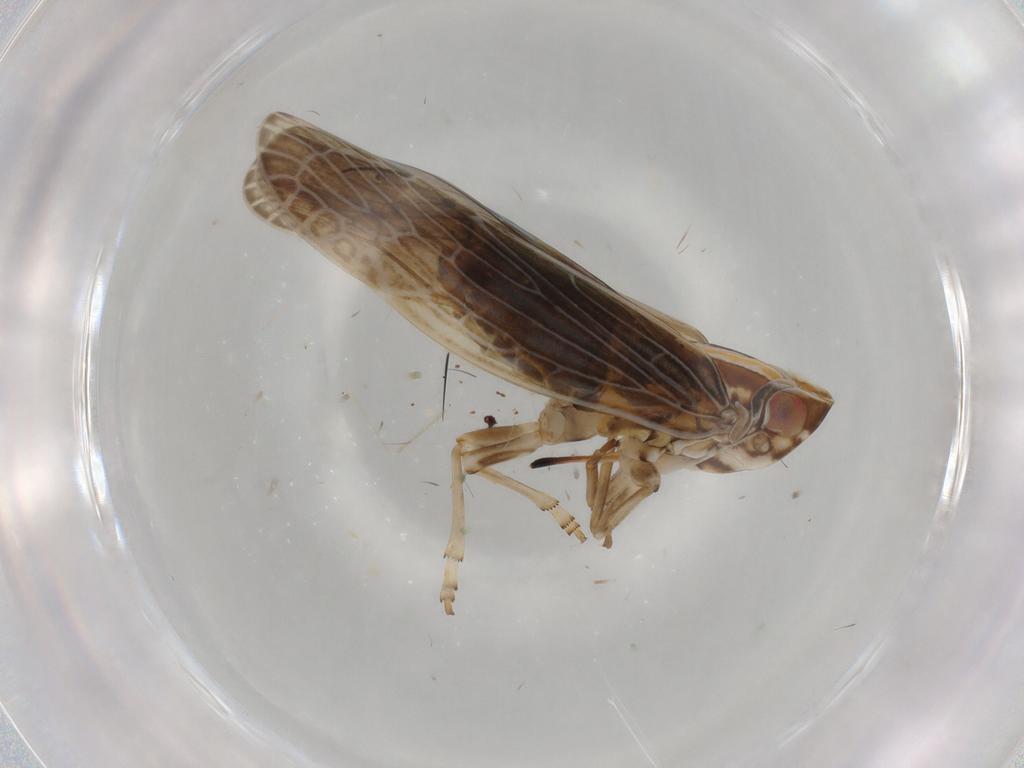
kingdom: Animalia
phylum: Arthropoda
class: Insecta
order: Hemiptera
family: Achilidae
